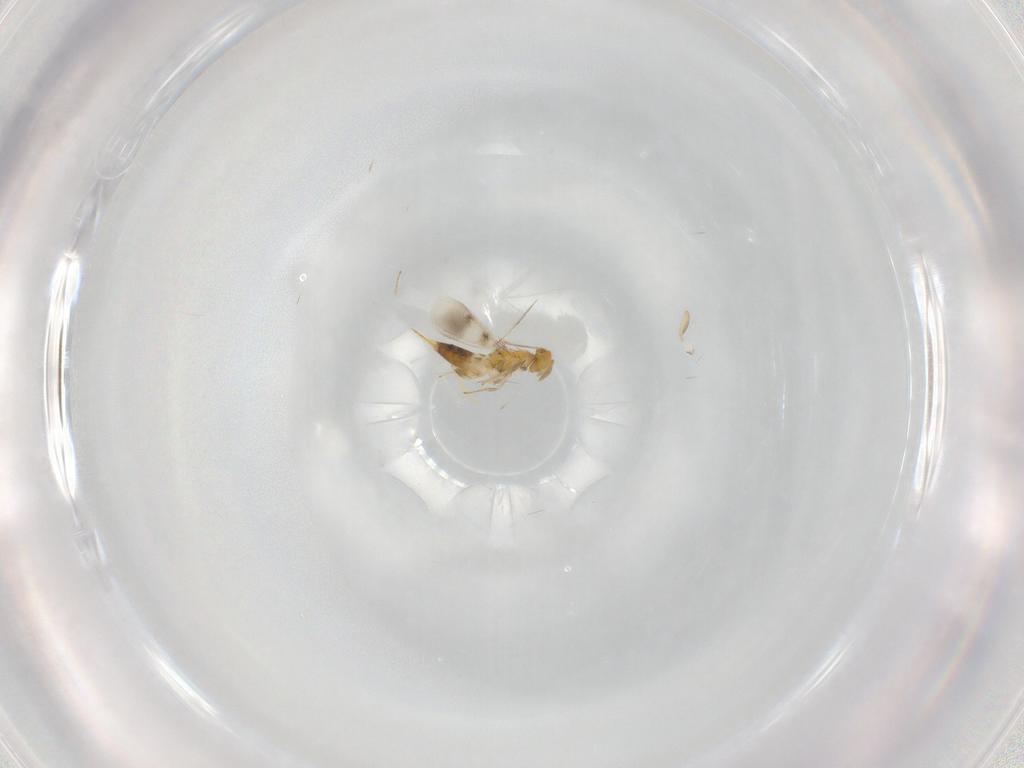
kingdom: Animalia
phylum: Arthropoda
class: Insecta
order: Hymenoptera
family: Aphelinidae
